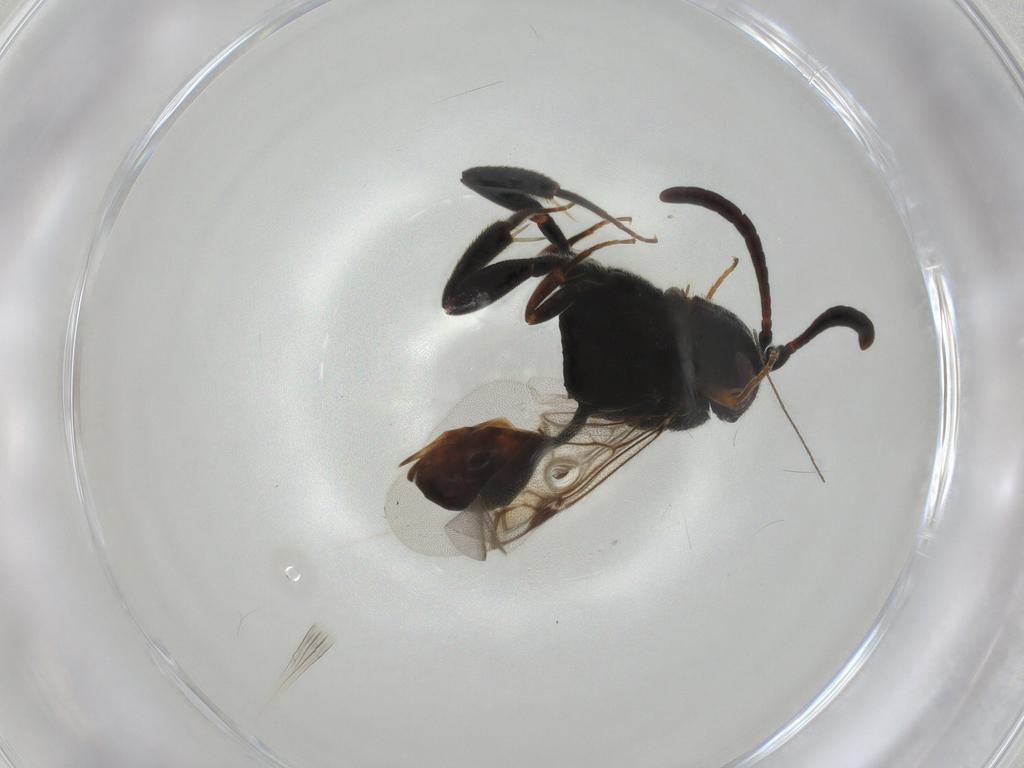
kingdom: Animalia
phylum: Arthropoda
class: Insecta
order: Hymenoptera
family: Evaniidae
